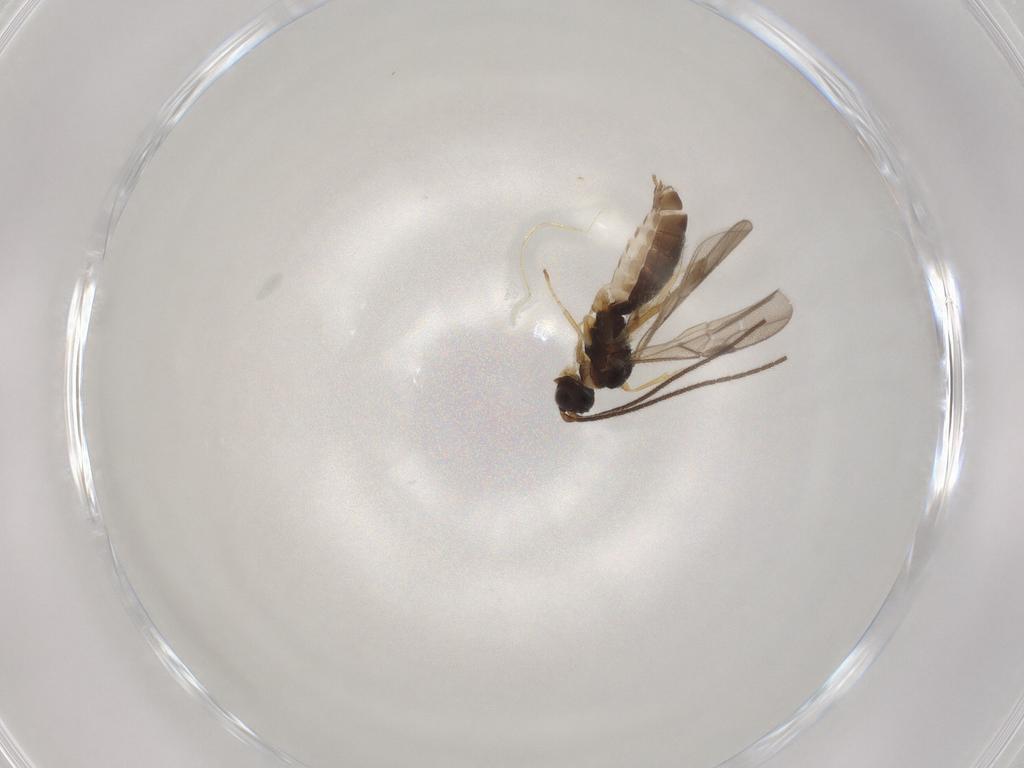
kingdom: Animalia
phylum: Arthropoda
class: Insecta
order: Hymenoptera
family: Braconidae
